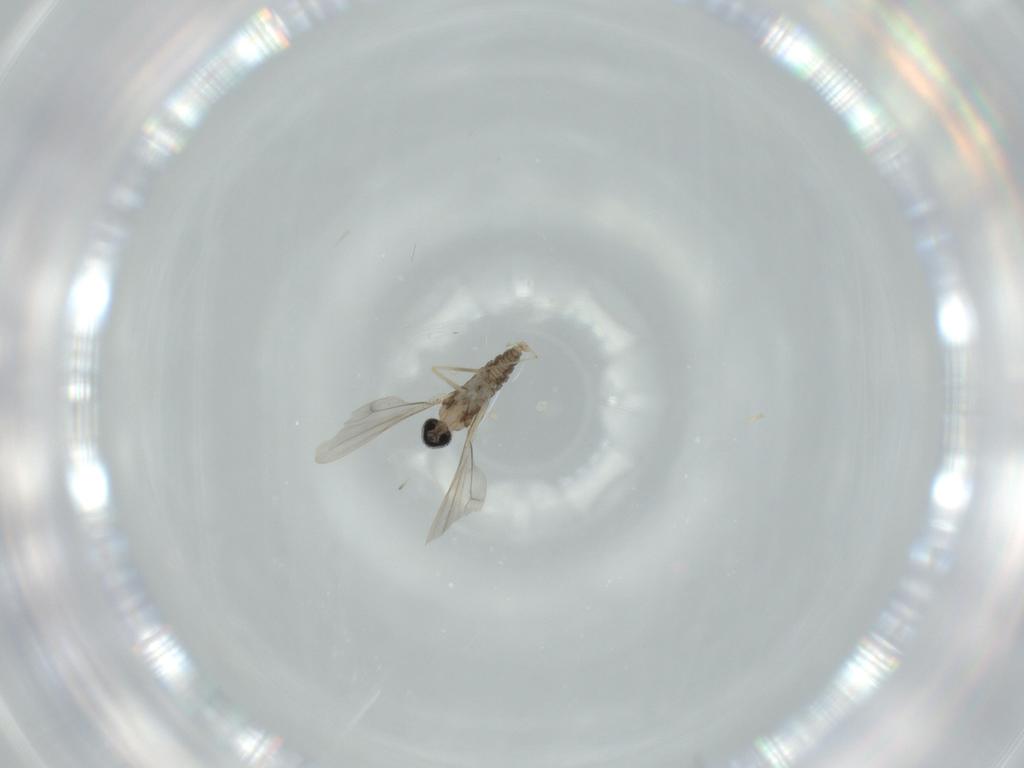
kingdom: Animalia
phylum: Arthropoda
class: Insecta
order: Diptera
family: Cecidomyiidae
